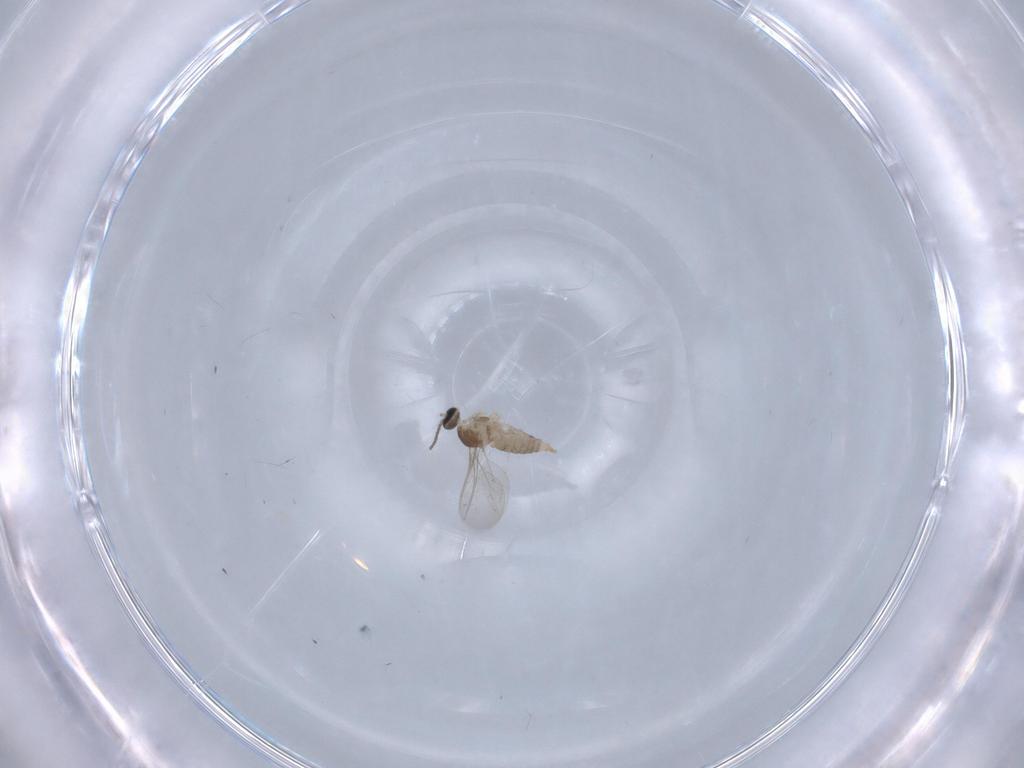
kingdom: Animalia
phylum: Arthropoda
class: Insecta
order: Diptera
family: Cecidomyiidae
